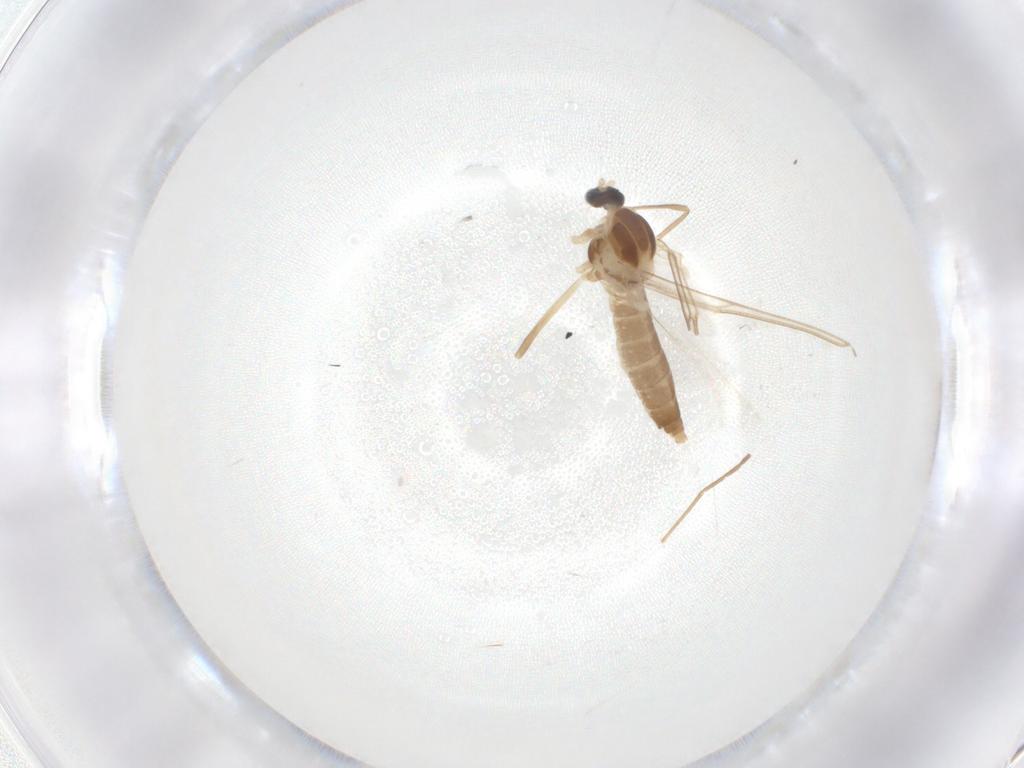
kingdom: Animalia
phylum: Arthropoda
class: Insecta
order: Diptera
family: Cecidomyiidae
